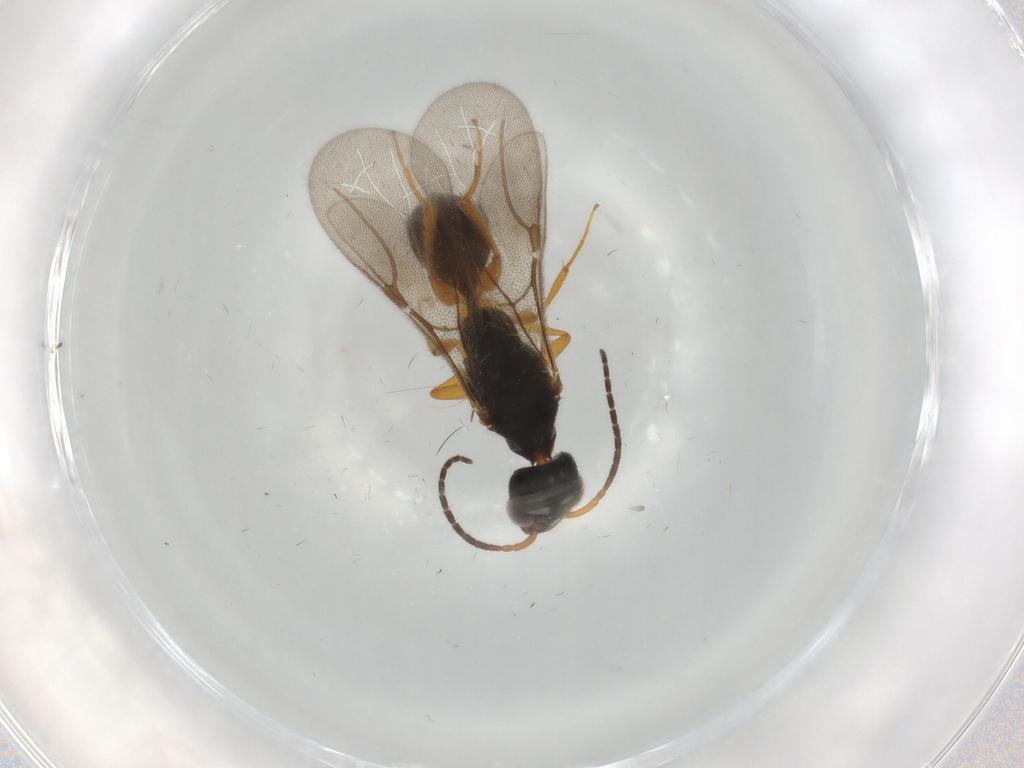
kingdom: Animalia
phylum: Arthropoda
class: Insecta
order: Hymenoptera
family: Bethylidae
